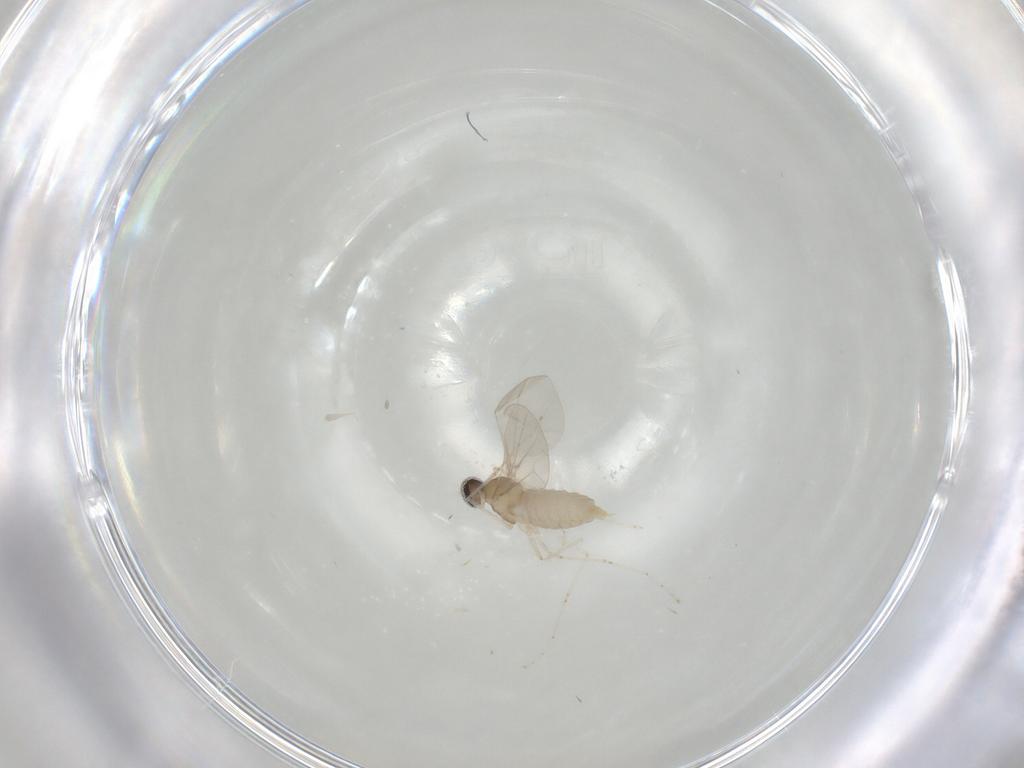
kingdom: Animalia
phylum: Arthropoda
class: Insecta
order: Diptera
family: Cecidomyiidae
